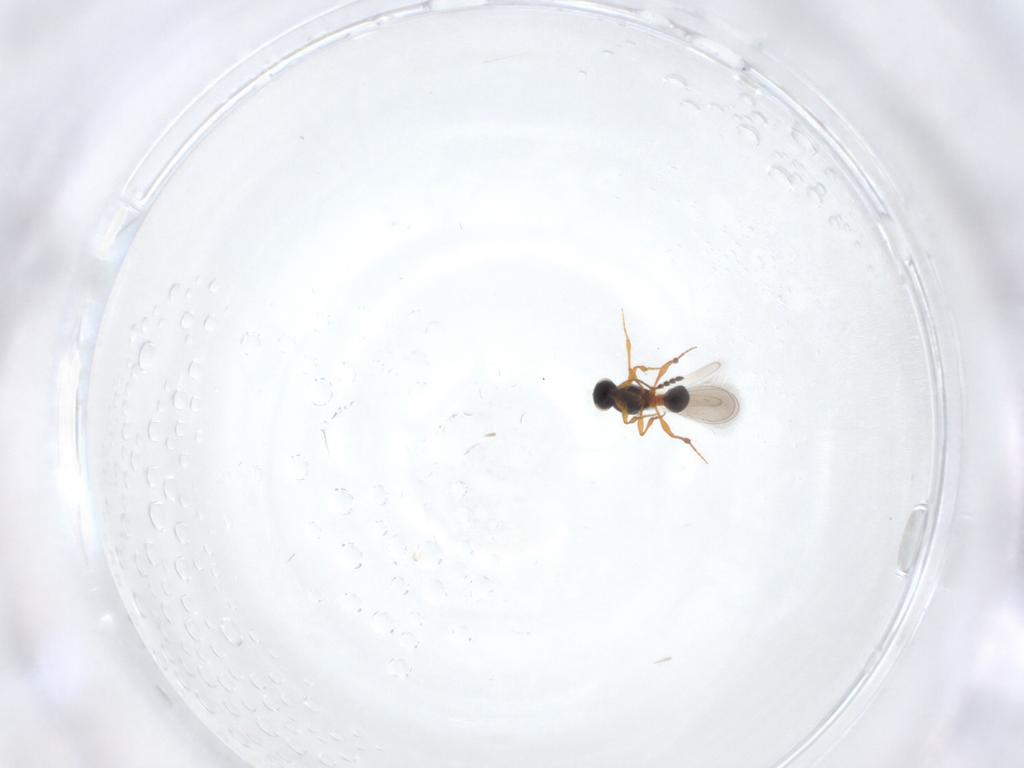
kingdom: Animalia
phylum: Arthropoda
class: Insecta
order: Hymenoptera
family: Platygastridae
